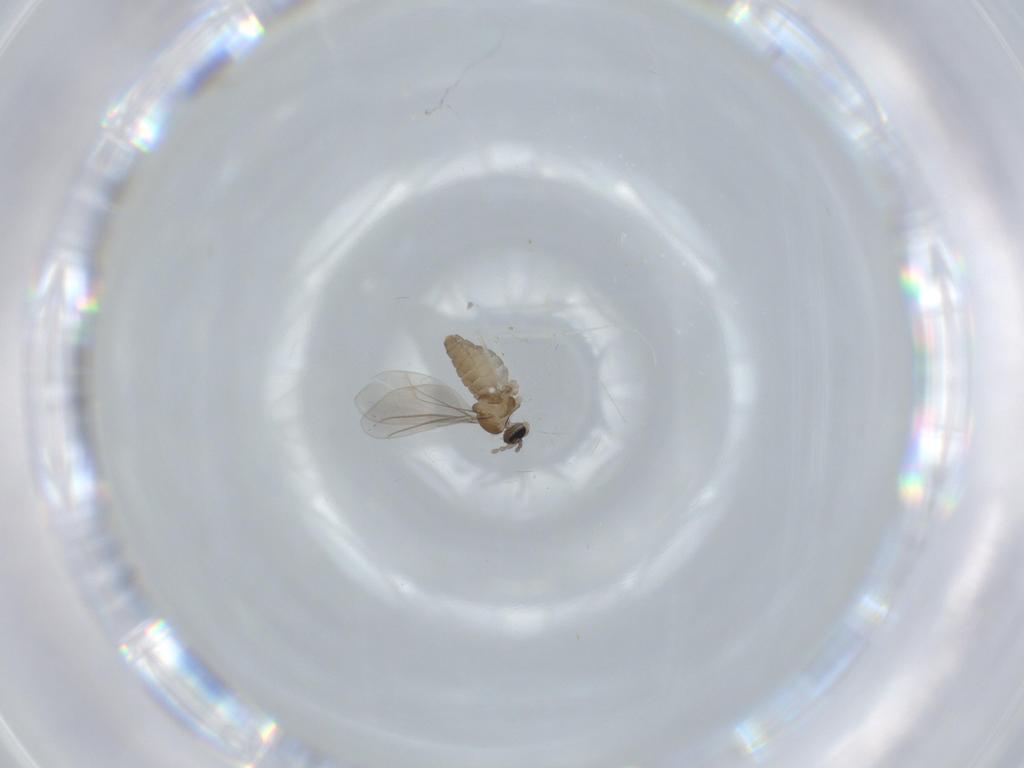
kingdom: Animalia
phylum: Arthropoda
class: Insecta
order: Diptera
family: Cecidomyiidae
